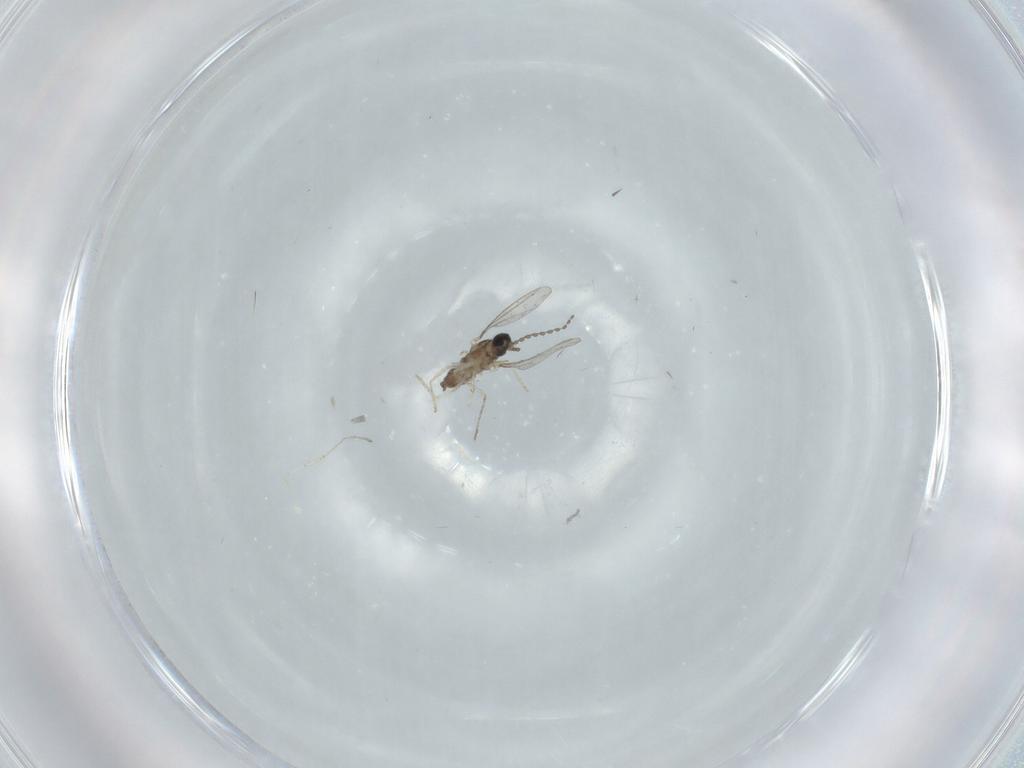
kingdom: Animalia
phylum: Arthropoda
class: Insecta
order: Diptera
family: Cecidomyiidae
